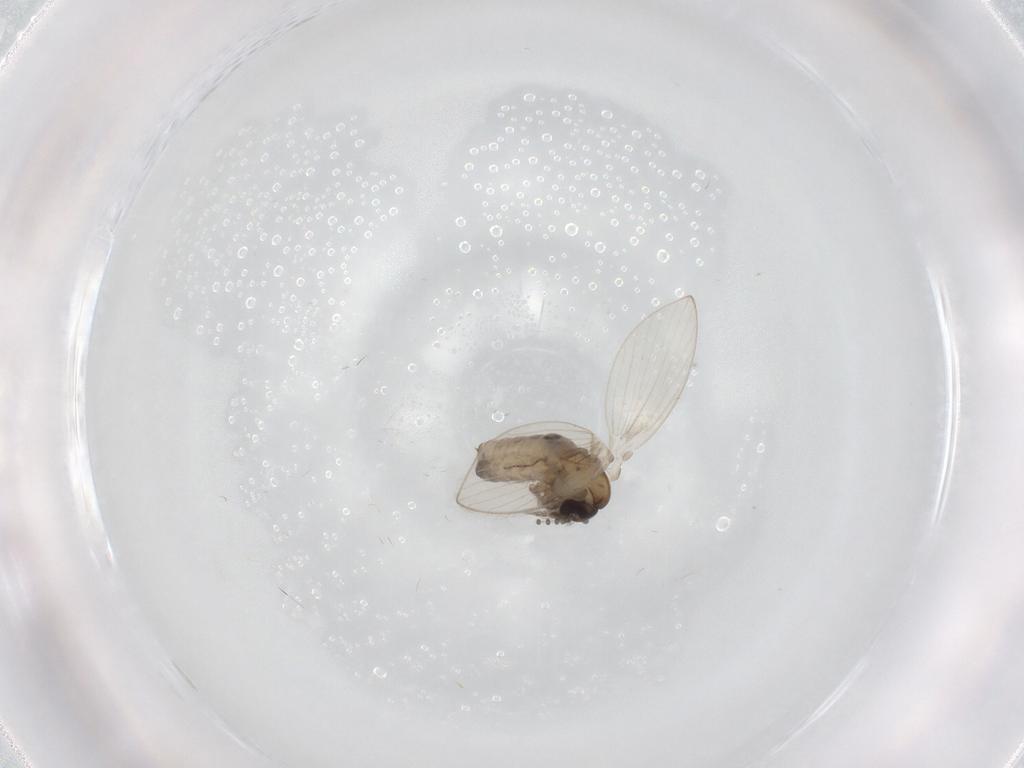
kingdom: Animalia
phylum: Arthropoda
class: Insecta
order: Diptera
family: Psychodidae
